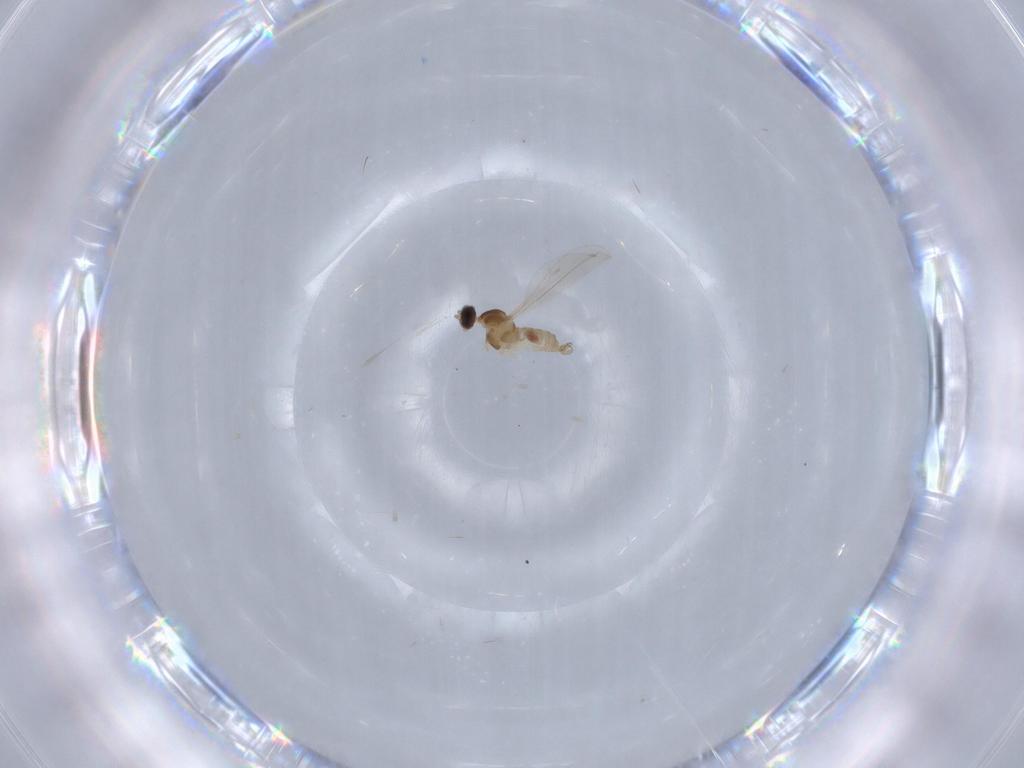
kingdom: Animalia
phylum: Arthropoda
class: Insecta
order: Diptera
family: Cecidomyiidae
